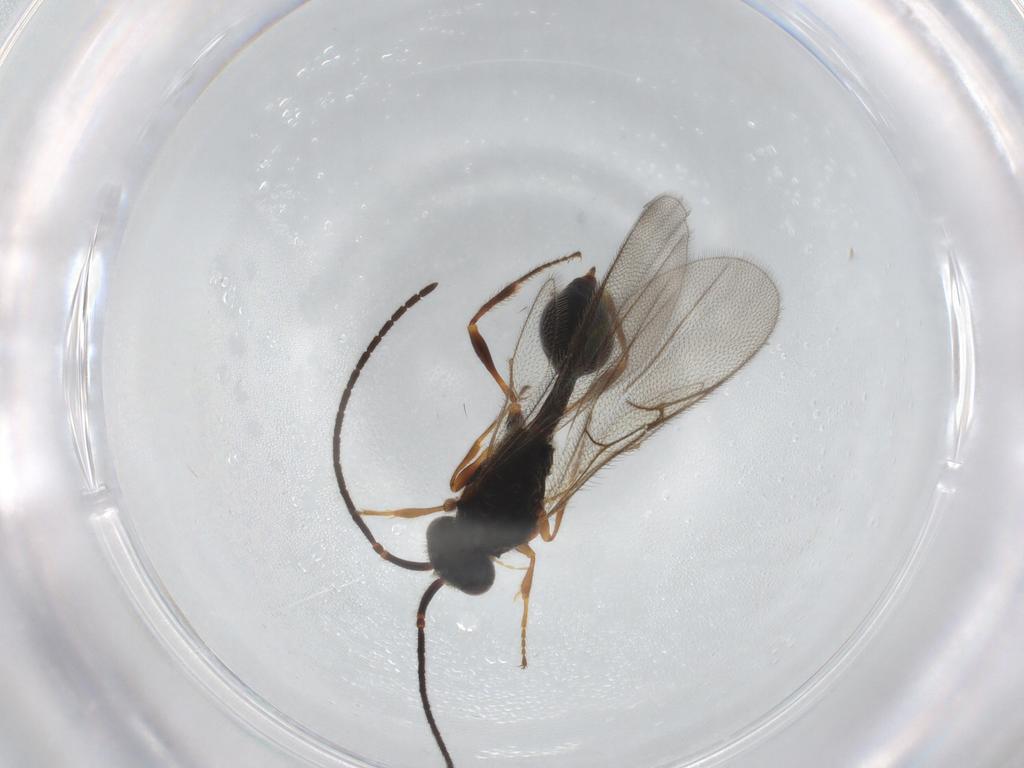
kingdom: Animalia
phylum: Arthropoda
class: Insecta
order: Hymenoptera
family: Diapriidae
